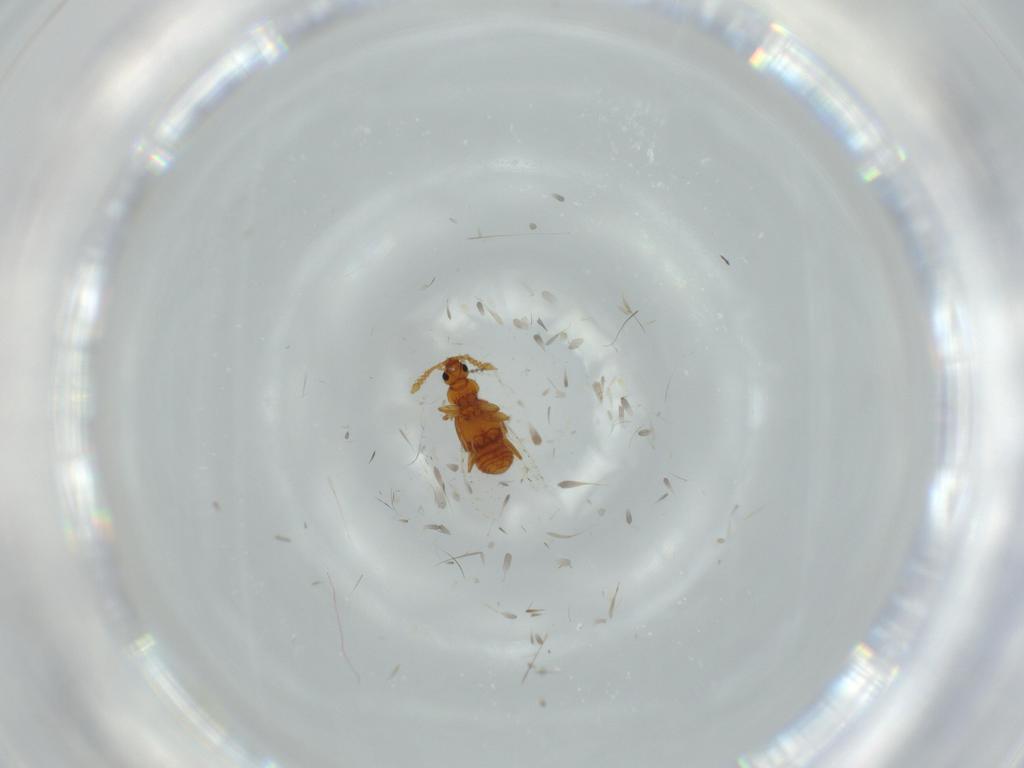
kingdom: Animalia
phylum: Arthropoda
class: Insecta
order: Coleoptera
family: Staphylinidae
